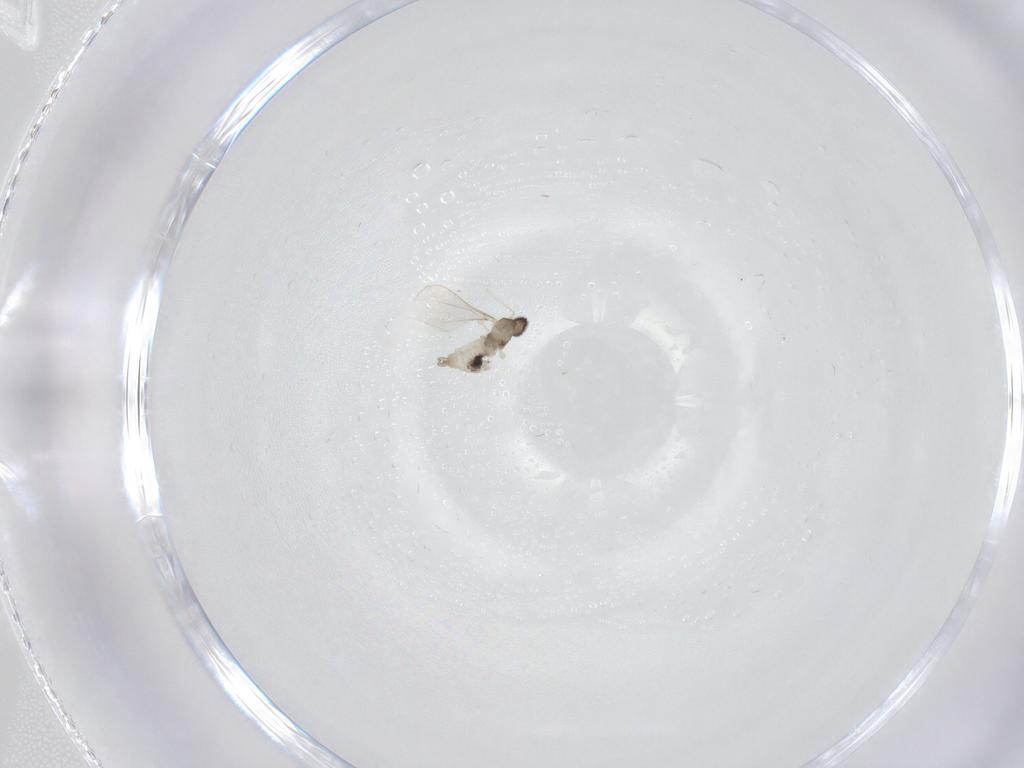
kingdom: Animalia
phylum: Arthropoda
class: Insecta
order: Diptera
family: Cecidomyiidae
